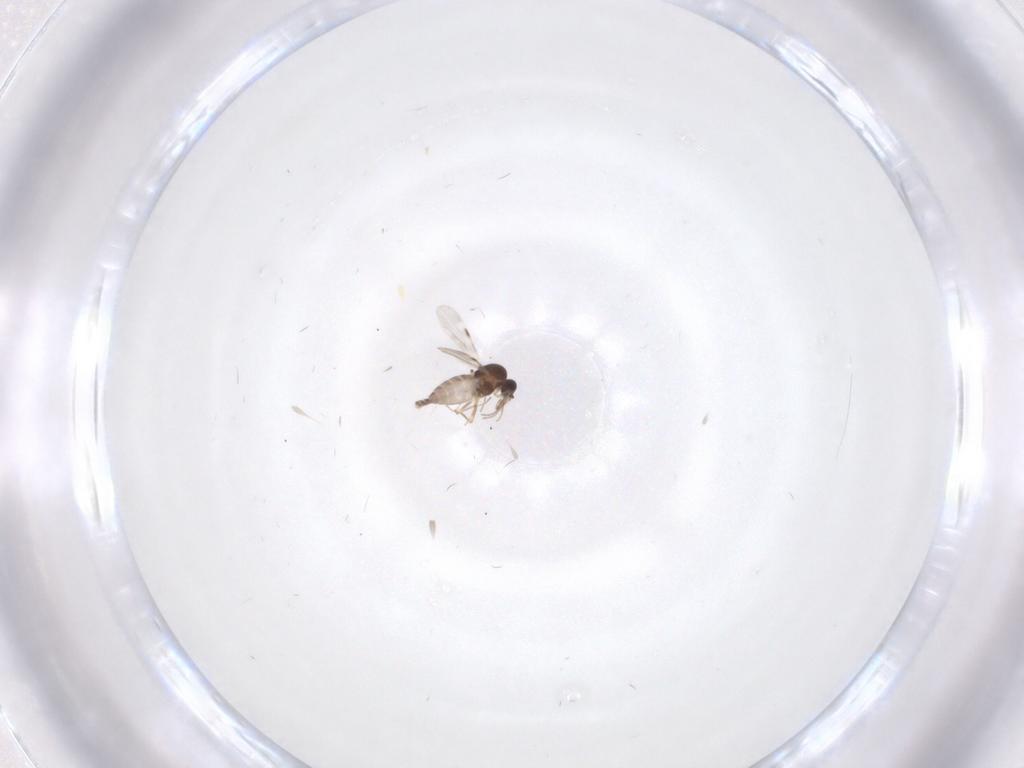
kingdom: Animalia
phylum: Arthropoda
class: Insecta
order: Diptera
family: Limoniidae
